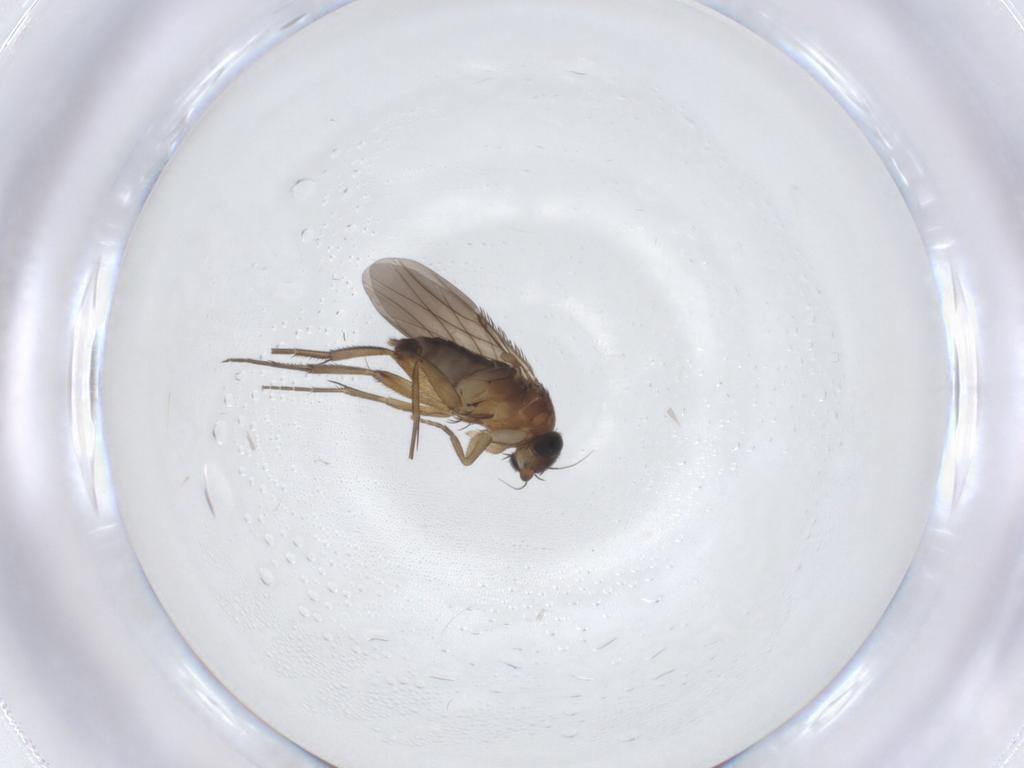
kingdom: Animalia
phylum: Arthropoda
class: Insecta
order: Diptera
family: Phoridae
